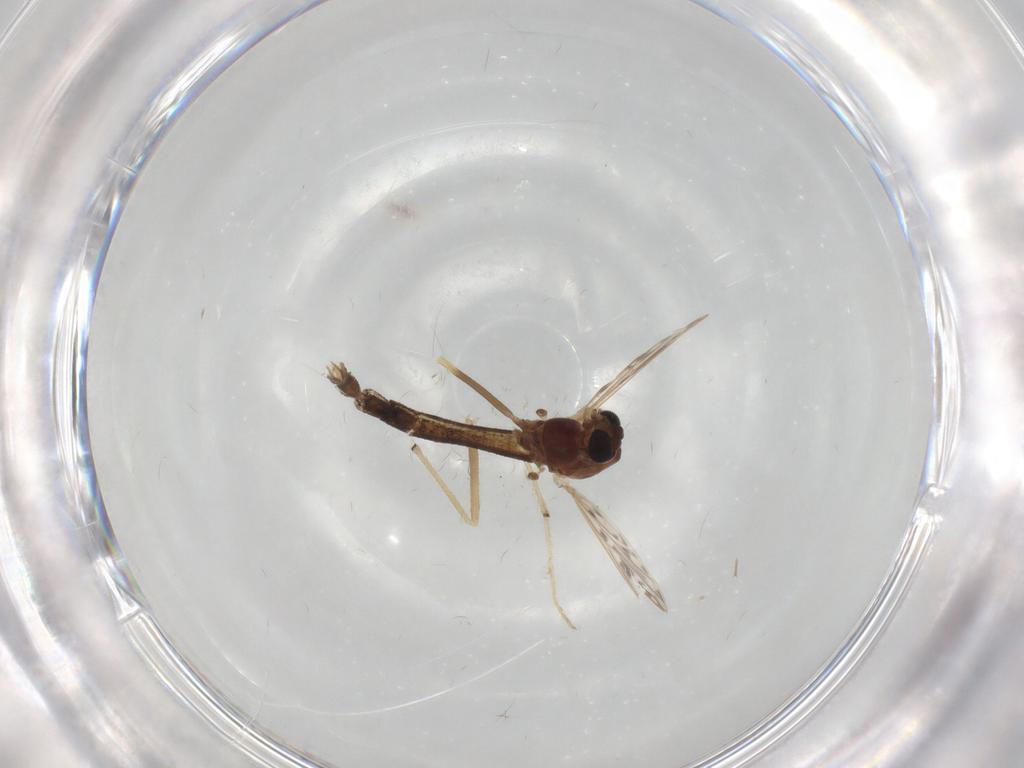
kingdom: Animalia
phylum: Arthropoda
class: Insecta
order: Diptera
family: Chironomidae
